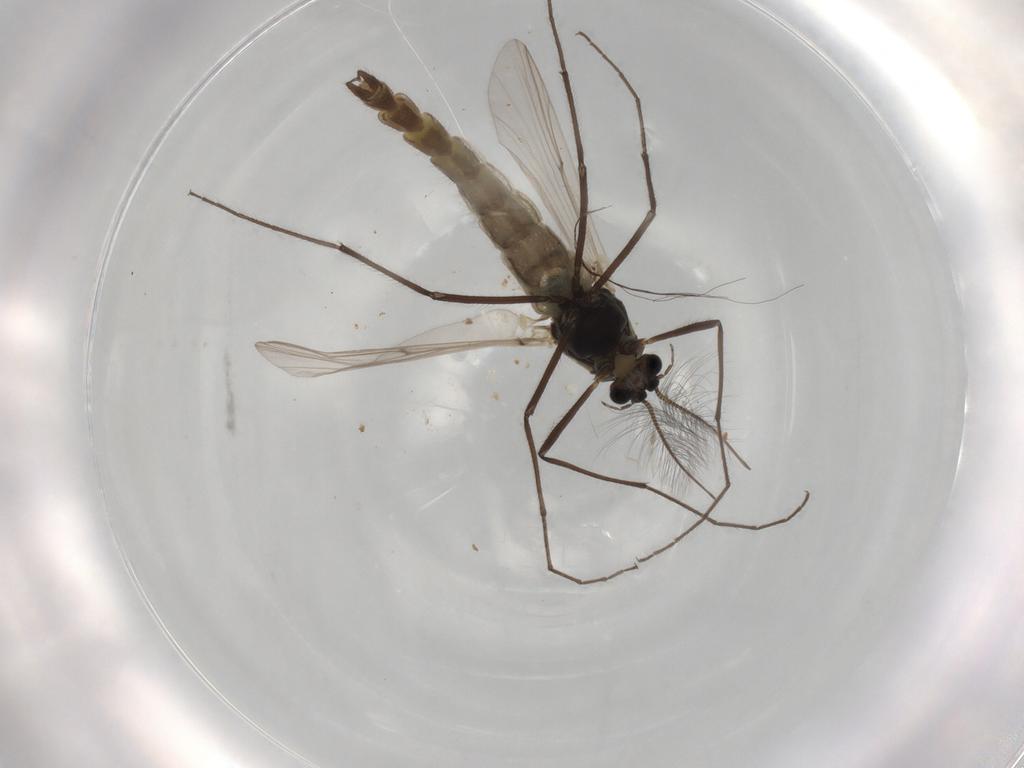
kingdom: Animalia
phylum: Arthropoda
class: Insecta
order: Diptera
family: Chironomidae
